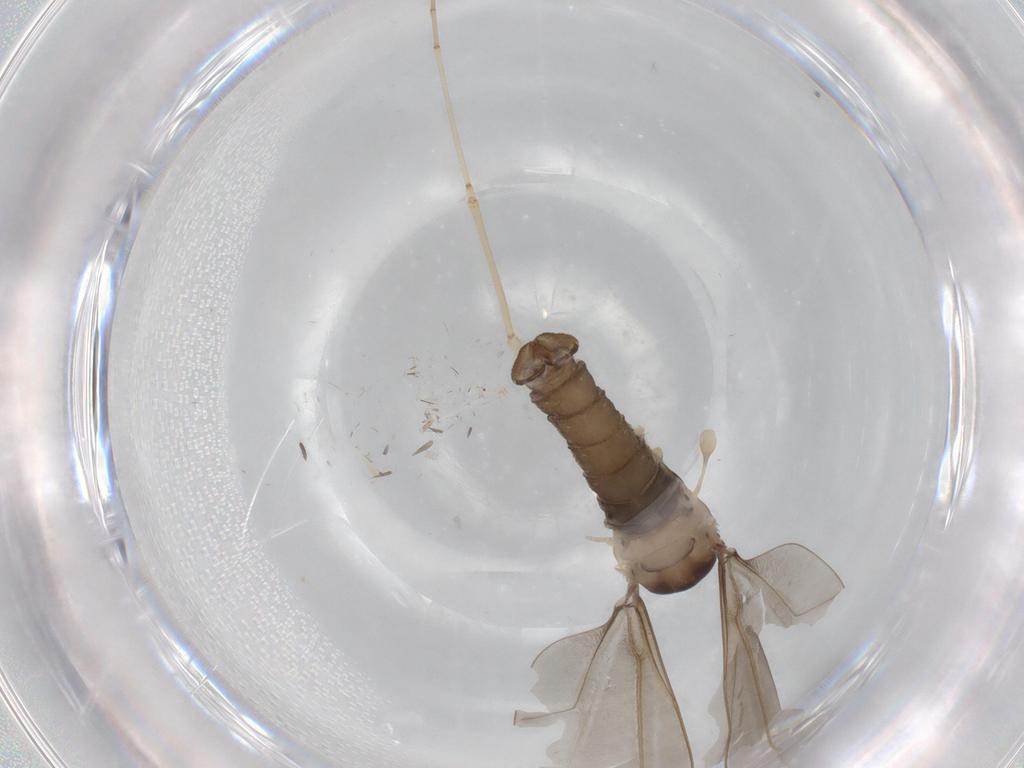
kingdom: Animalia
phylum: Arthropoda
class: Insecta
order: Diptera
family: Cecidomyiidae
